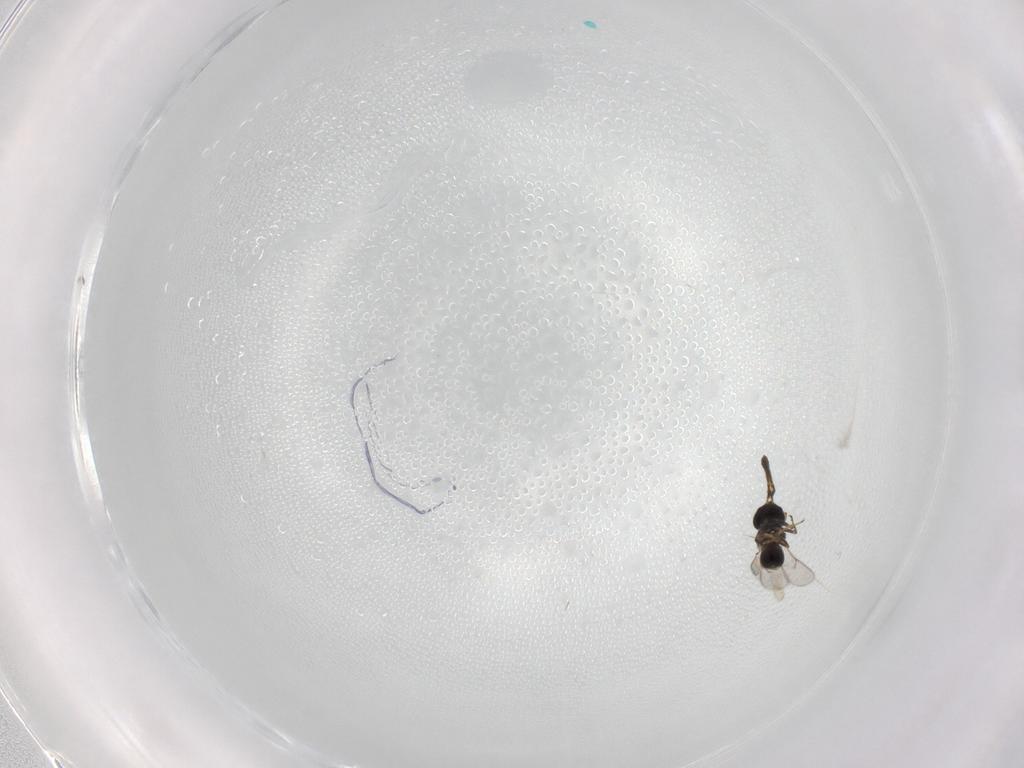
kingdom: Animalia
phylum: Arthropoda
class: Insecta
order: Hymenoptera
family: Scelionidae
